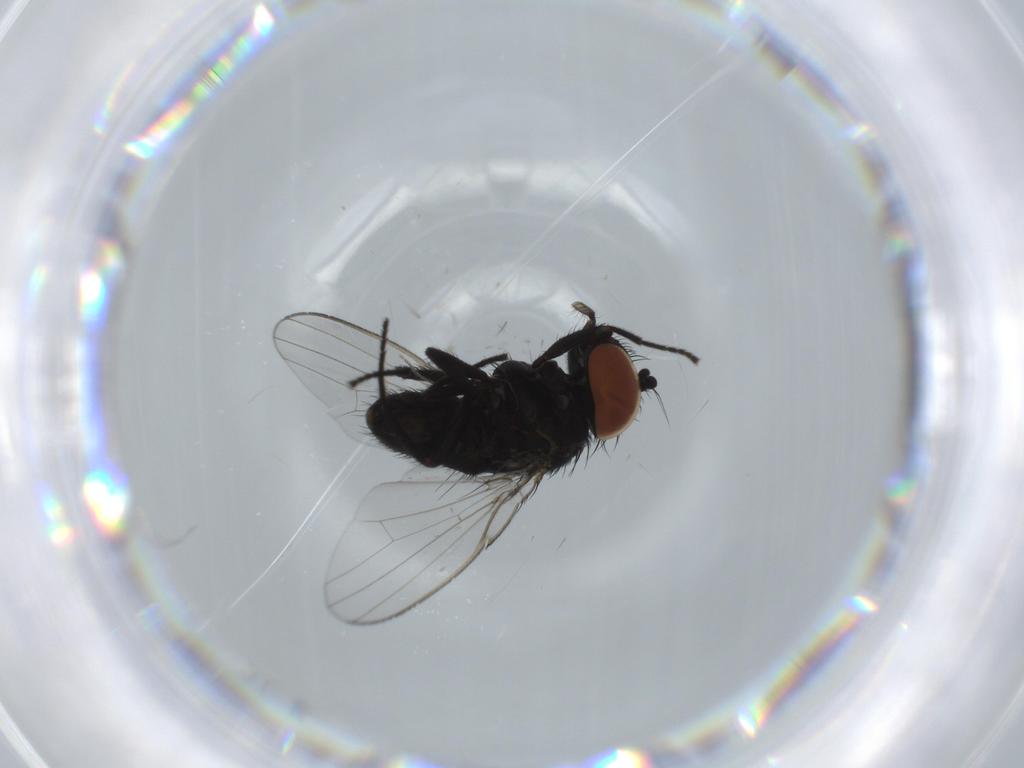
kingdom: Animalia
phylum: Arthropoda
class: Insecta
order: Diptera
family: Milichiidae
